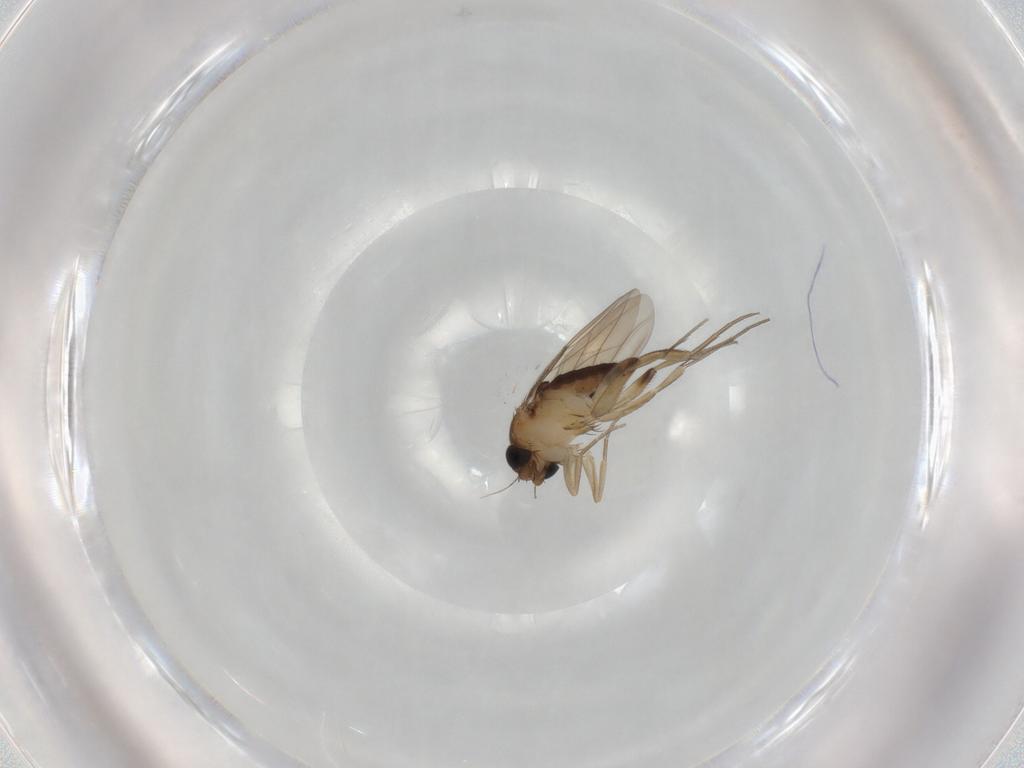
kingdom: Animalia
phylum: Arthropoda
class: Insecta
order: Diptera
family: Phoridae
